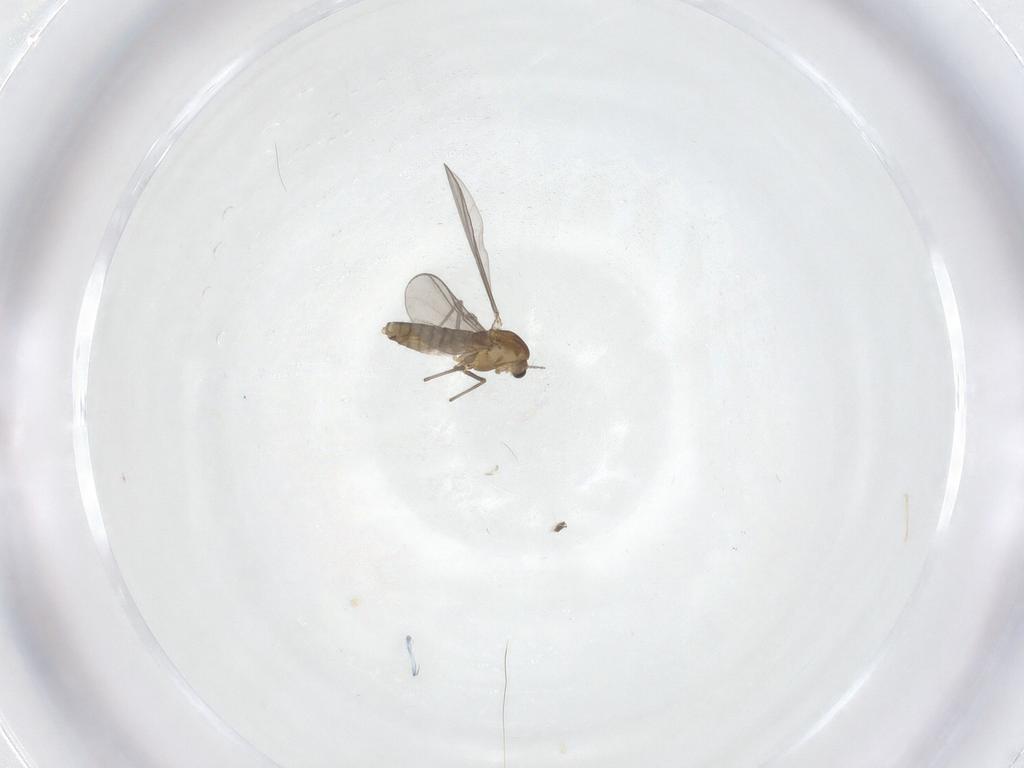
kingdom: Animalia
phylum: Arthropoda
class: Insecta
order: Diptera
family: Chironomidae
